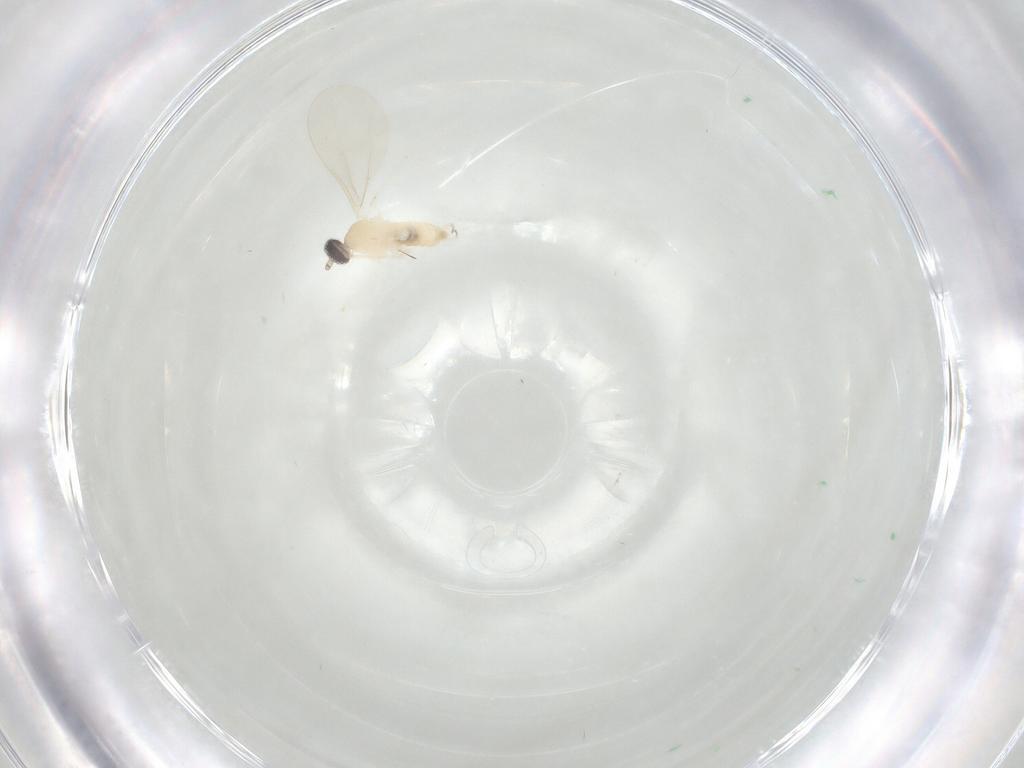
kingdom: Animalia
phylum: Arthropoda
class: Insecta
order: Diptera
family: Cecidomyiidae
